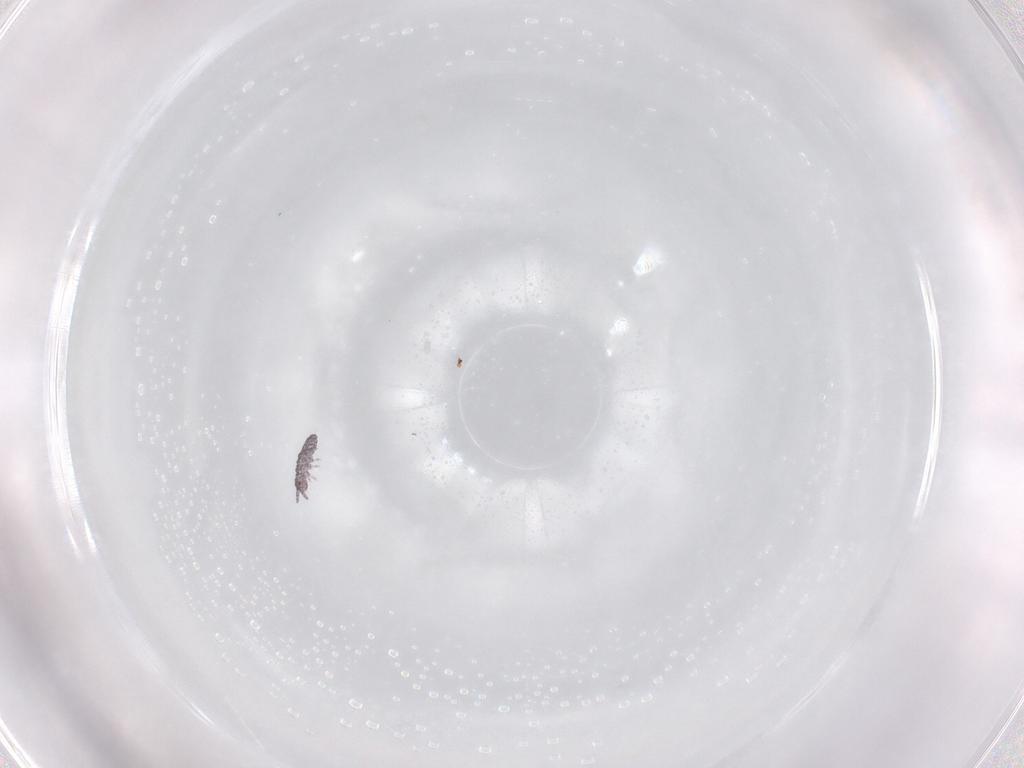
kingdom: Animalia
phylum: Arthropoda
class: Collembola
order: Poduromorpha
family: Hypogastruridae
